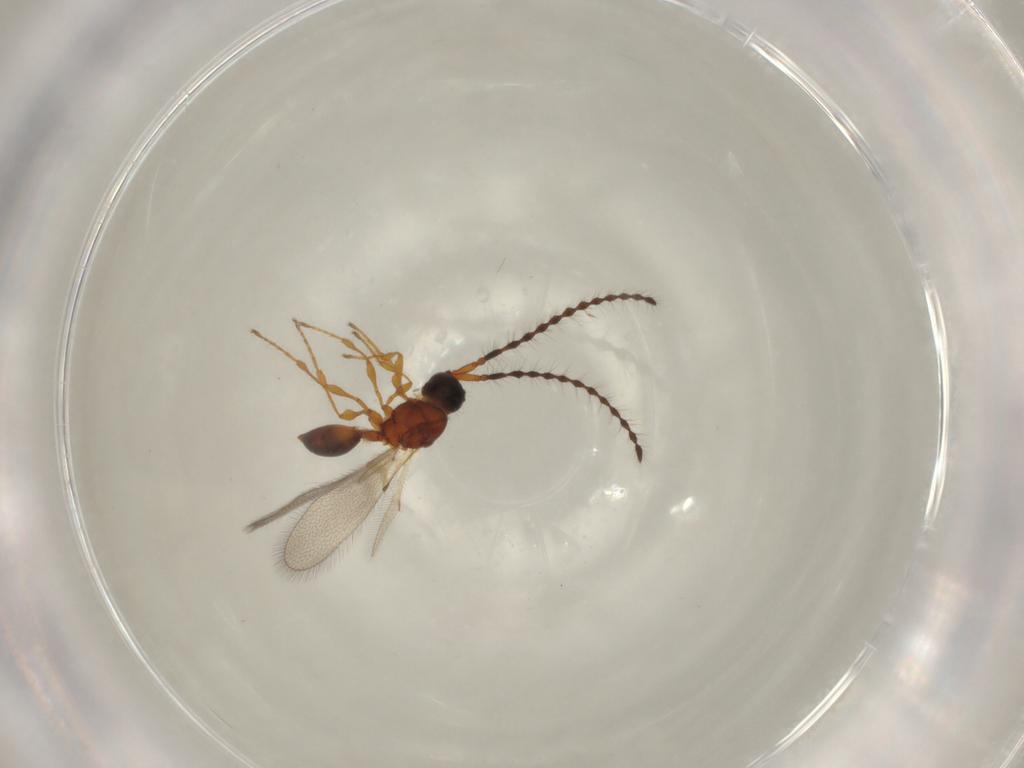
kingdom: Animalia
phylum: Arthropoda
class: Insecta
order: Hymenoptera
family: Diapriidae
